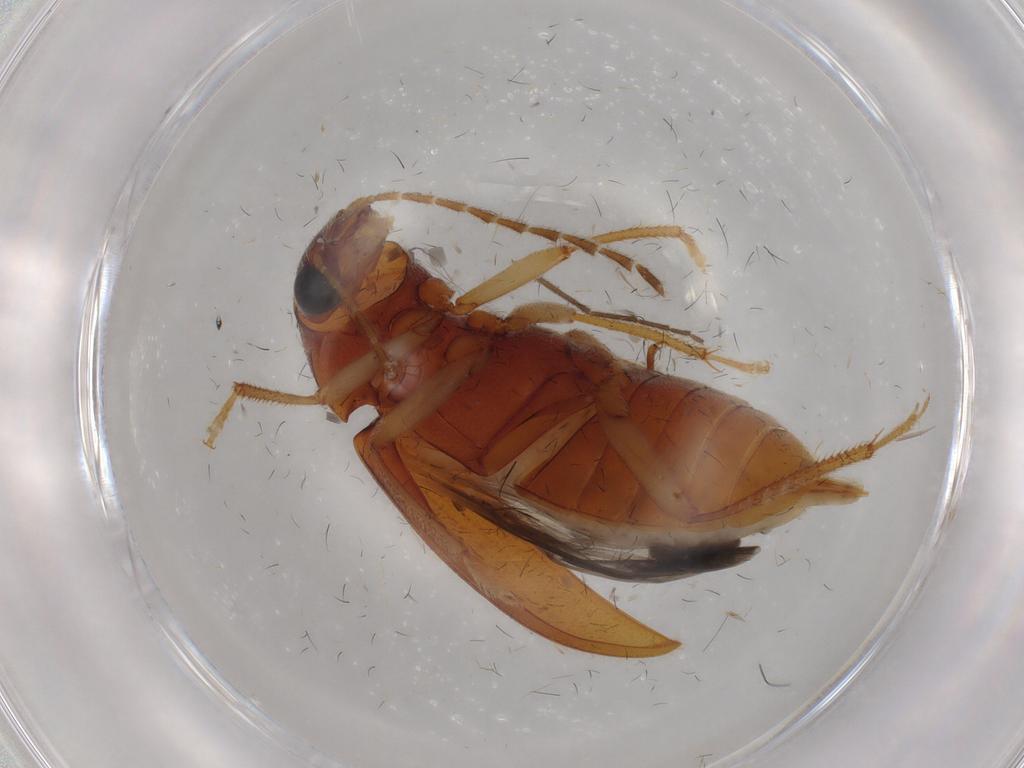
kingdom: Animalia
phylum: Arthropoda
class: Insecta
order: Coleoptera
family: Ptilodactylidae
